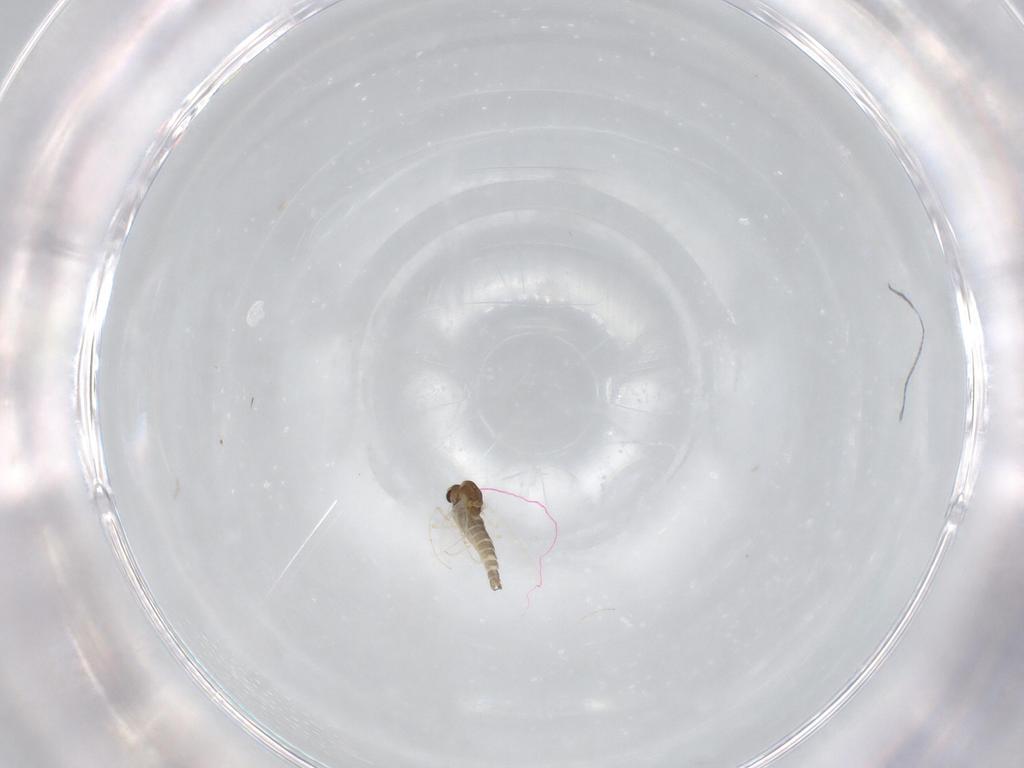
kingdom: Animalia
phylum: Arthropoda
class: Insecta
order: Diptera
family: Chironomidae
